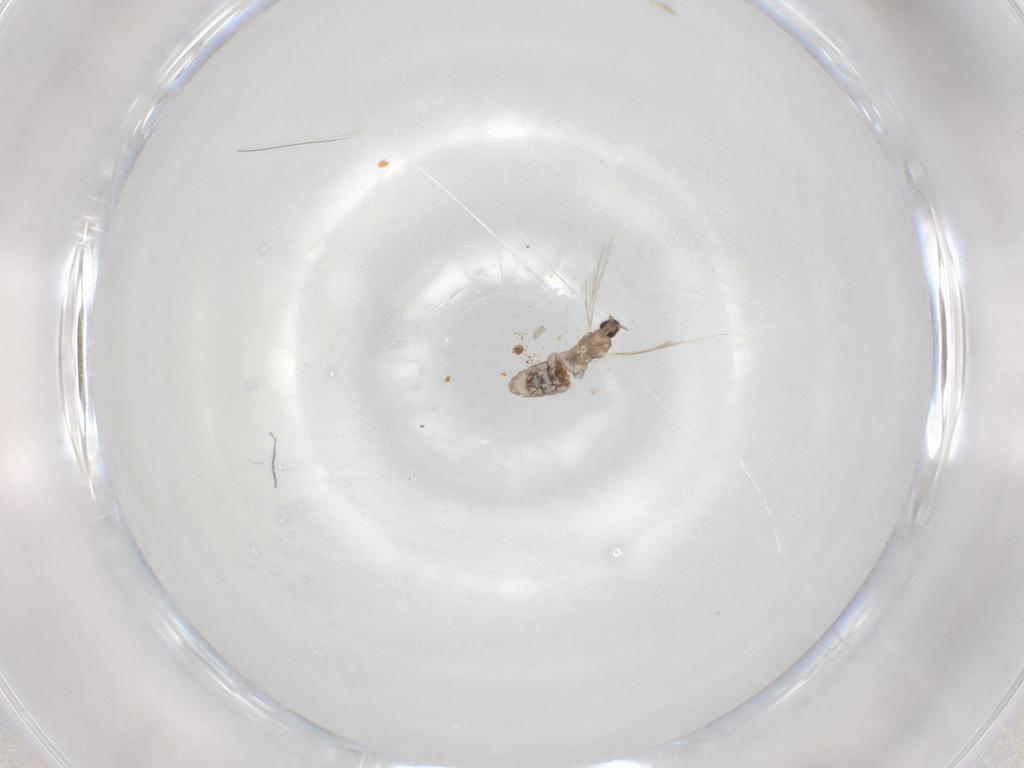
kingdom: Animalia
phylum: Arthropoda
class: Insecta
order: Diptera
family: Cecidomyiidae
